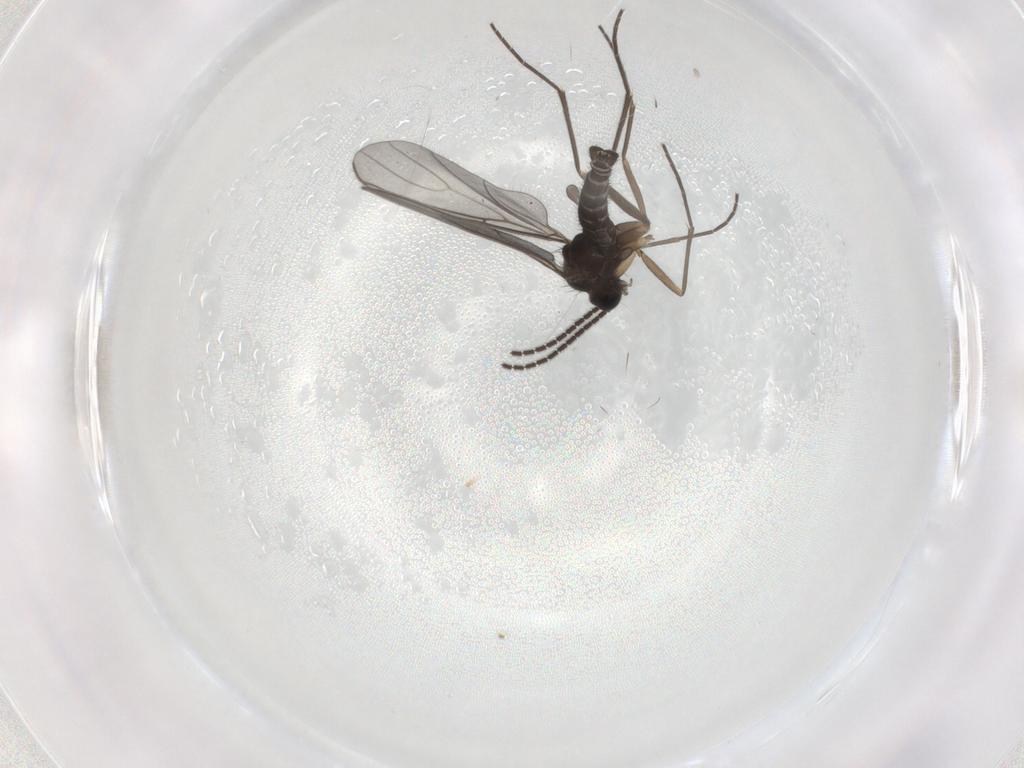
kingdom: Animalia
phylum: Arthropoda
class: Insecta
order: Diptera
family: Sciaridae
